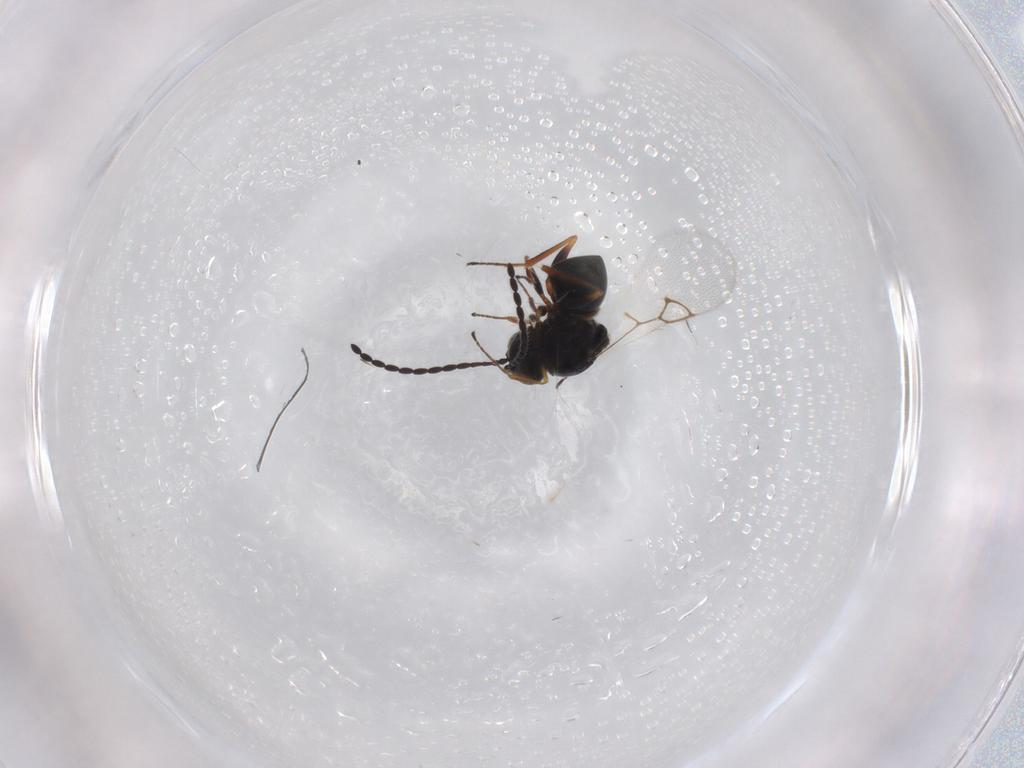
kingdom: Animalia
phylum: Arthropoda
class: Insecta
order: Hymenoptera
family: Figitidae
